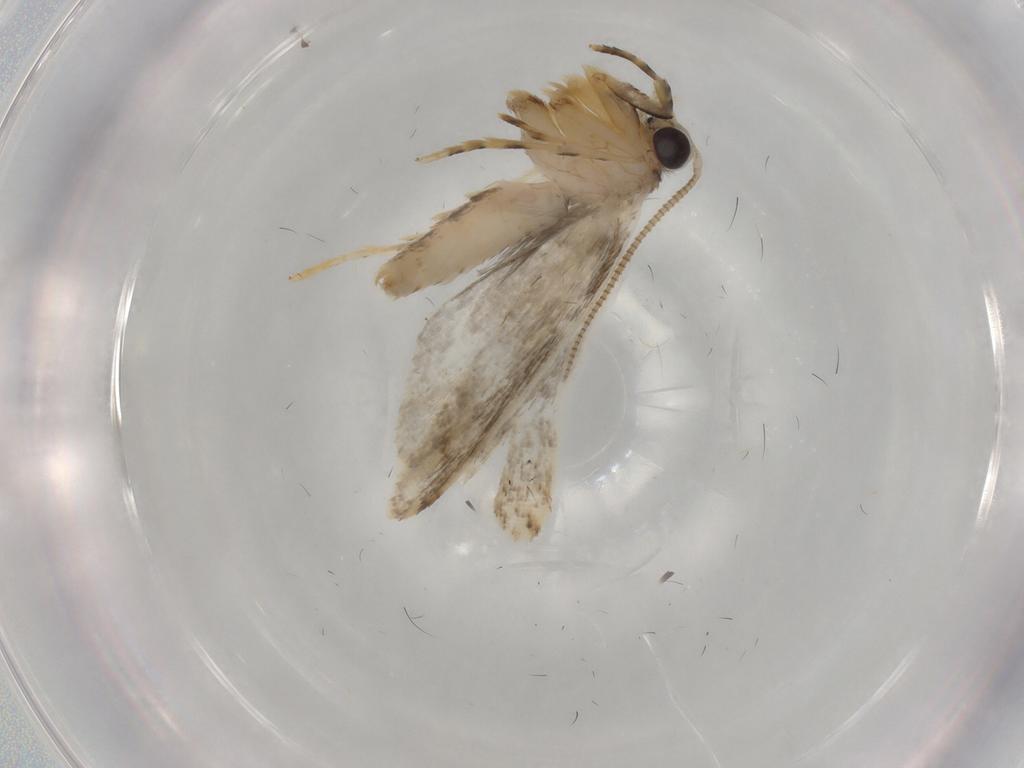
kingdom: Animalia
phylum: Arthropoda
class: Insecta
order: Lepidoptera
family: Tineidae
